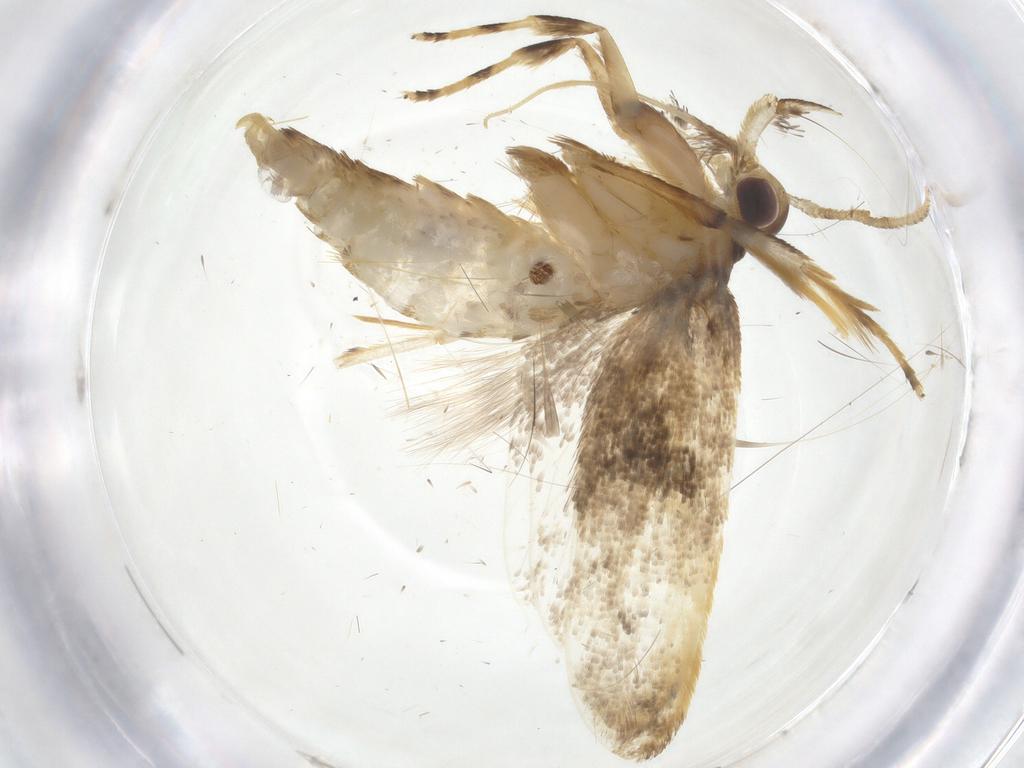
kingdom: Animalia
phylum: Arthropoda
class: Insecta
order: Lepidoptera
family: Lecithoceridae
